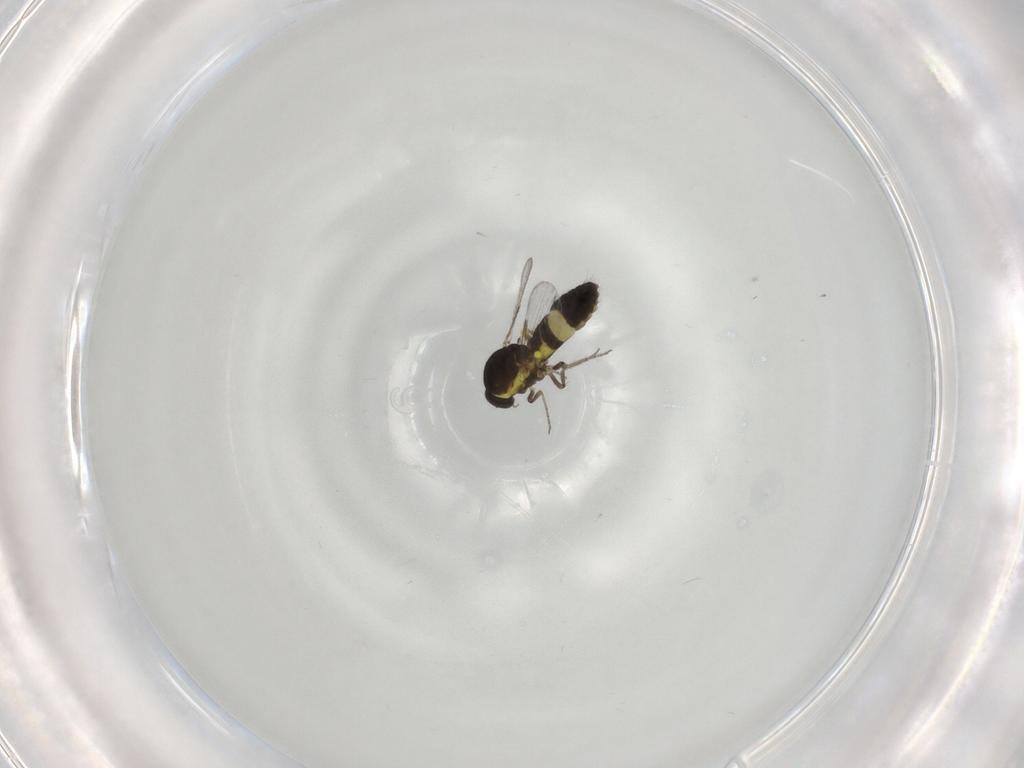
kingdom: Animalia
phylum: Arthropoda
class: Insecta
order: Diptera
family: Ceratopogonidae
